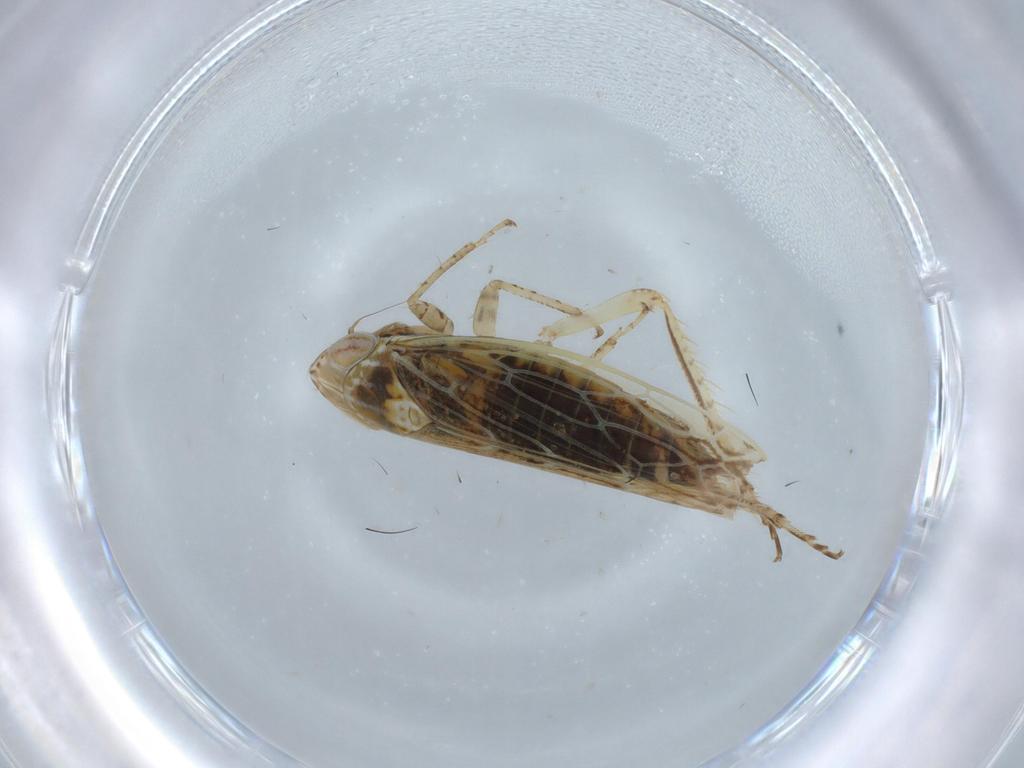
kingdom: Animalia
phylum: Arthropoda
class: Insecta
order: Hemiptera
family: Cicadellidae
